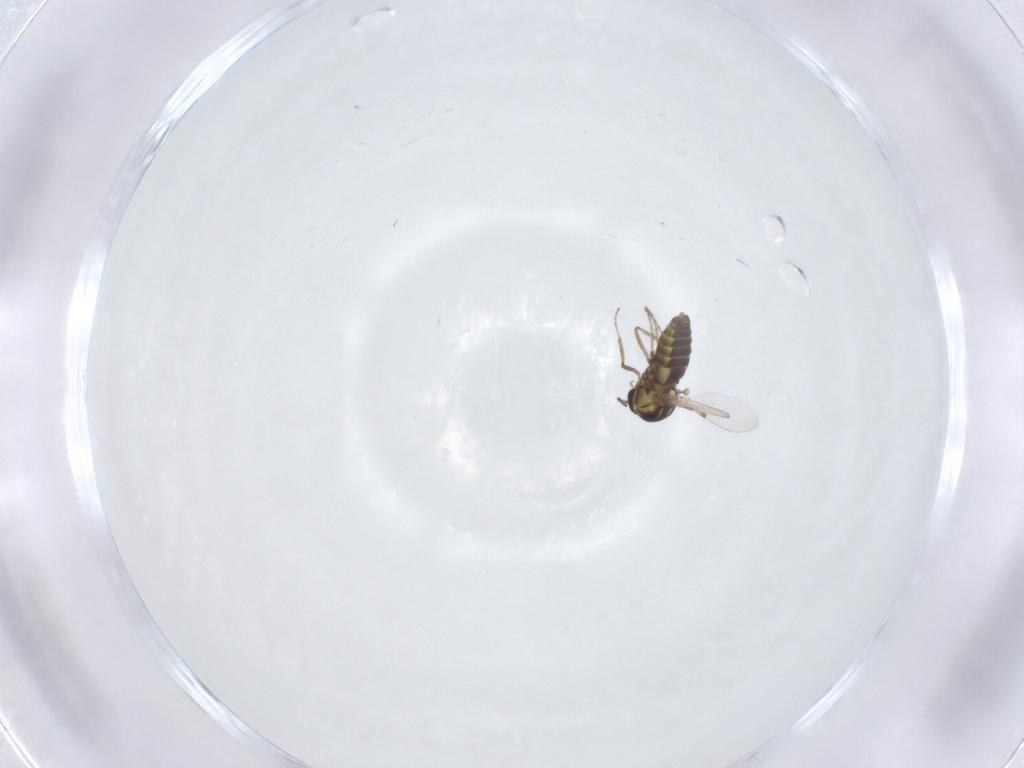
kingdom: Animalia
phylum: Arthropoda
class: Insecta
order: Diptera
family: Ceratopogonidae
